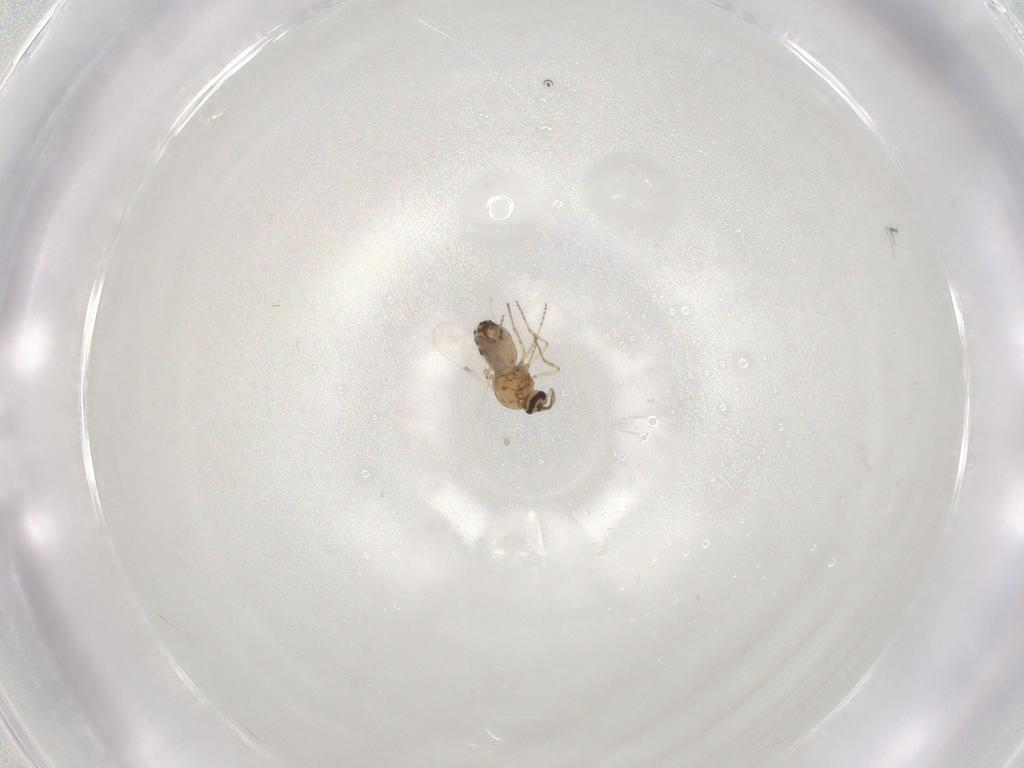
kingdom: Animalia
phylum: Arthropoda
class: Insecta
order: Diptera
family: Ceratopogonidae
